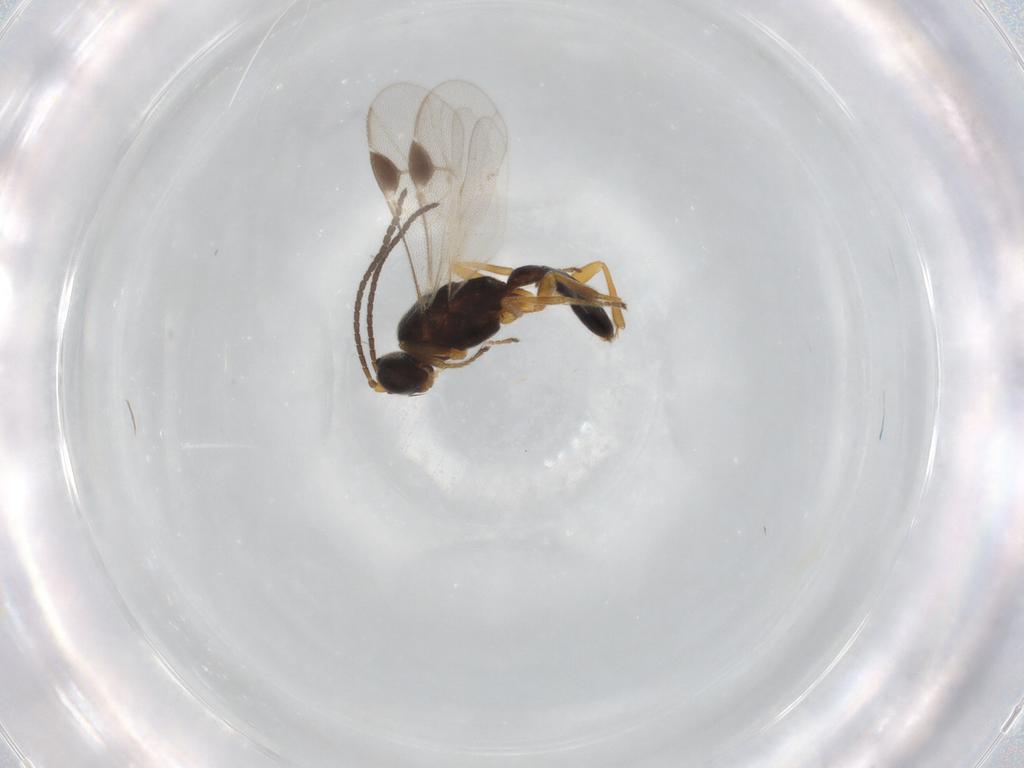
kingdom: Animalia
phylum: Arthropoda
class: Insecta
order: Hymenoptera
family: Braconidae
